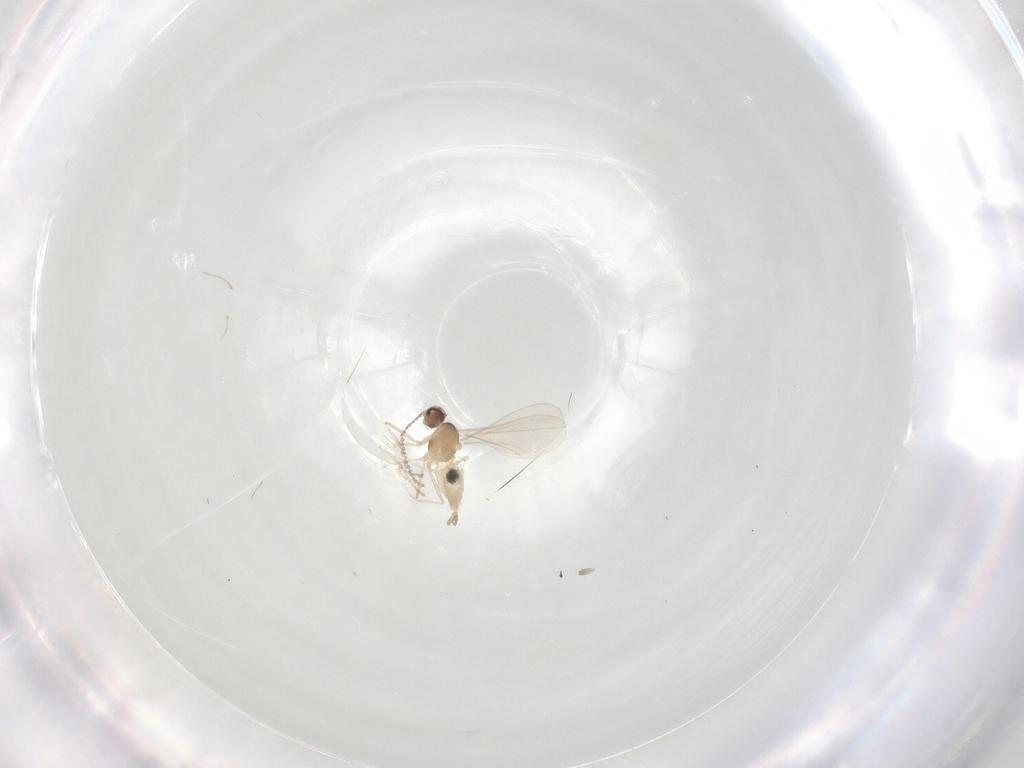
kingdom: Animalia
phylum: Arthropoda
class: Insecta
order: Diptera
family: Cecidomyiidae
